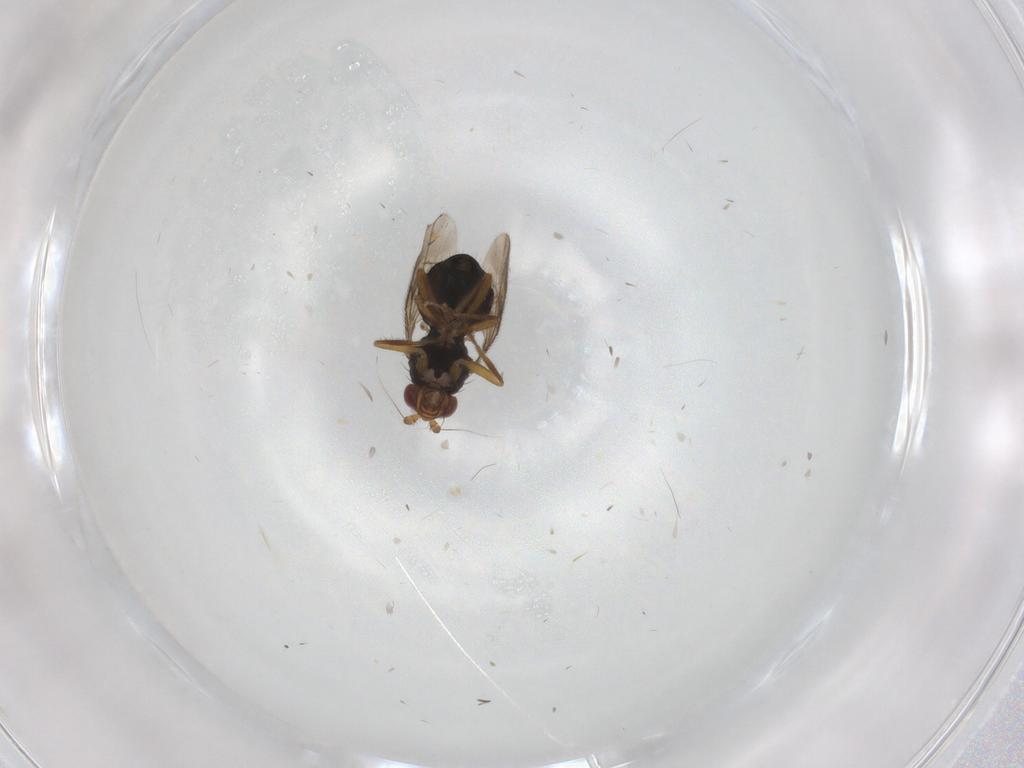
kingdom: Animalia
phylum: Arthropoda
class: Insecta
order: Diptera
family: Sphaeroceridae
